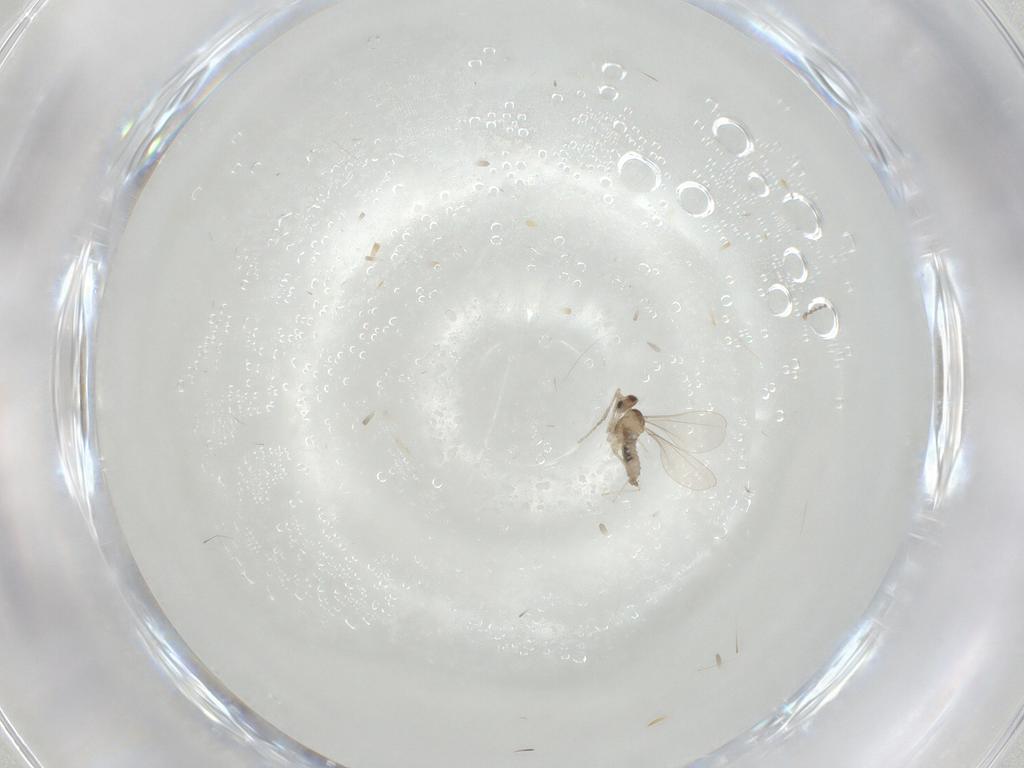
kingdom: Animalia
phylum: Arthropoda
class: Insecta
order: Diptera
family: Cecidomyiidae
